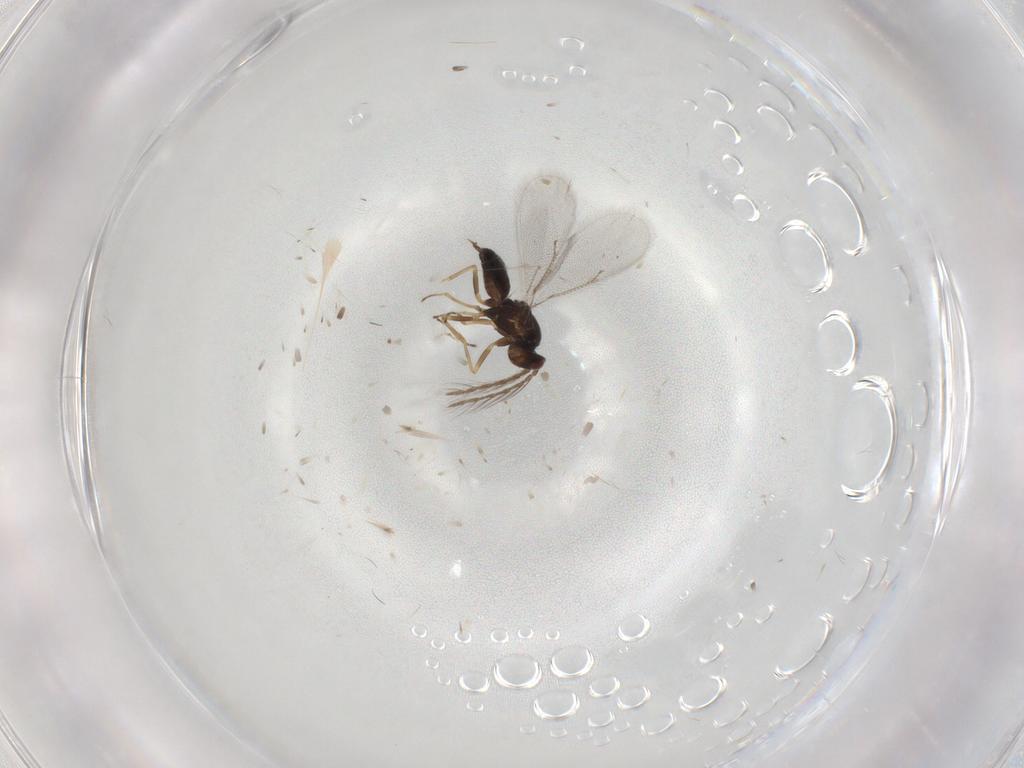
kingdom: Animalia
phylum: Arthropoda
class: Insecta
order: Hymenoptera
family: Eulophidae
